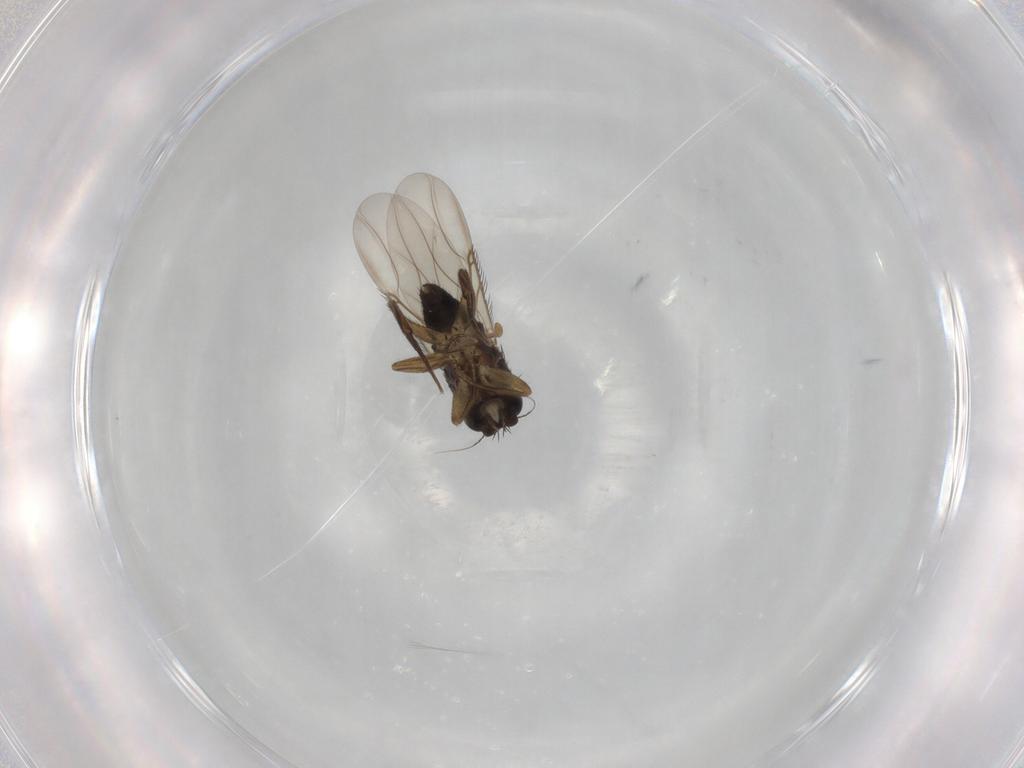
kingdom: Animalia
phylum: Arthropoda
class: Insecta
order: Diptera
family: Phoridae
